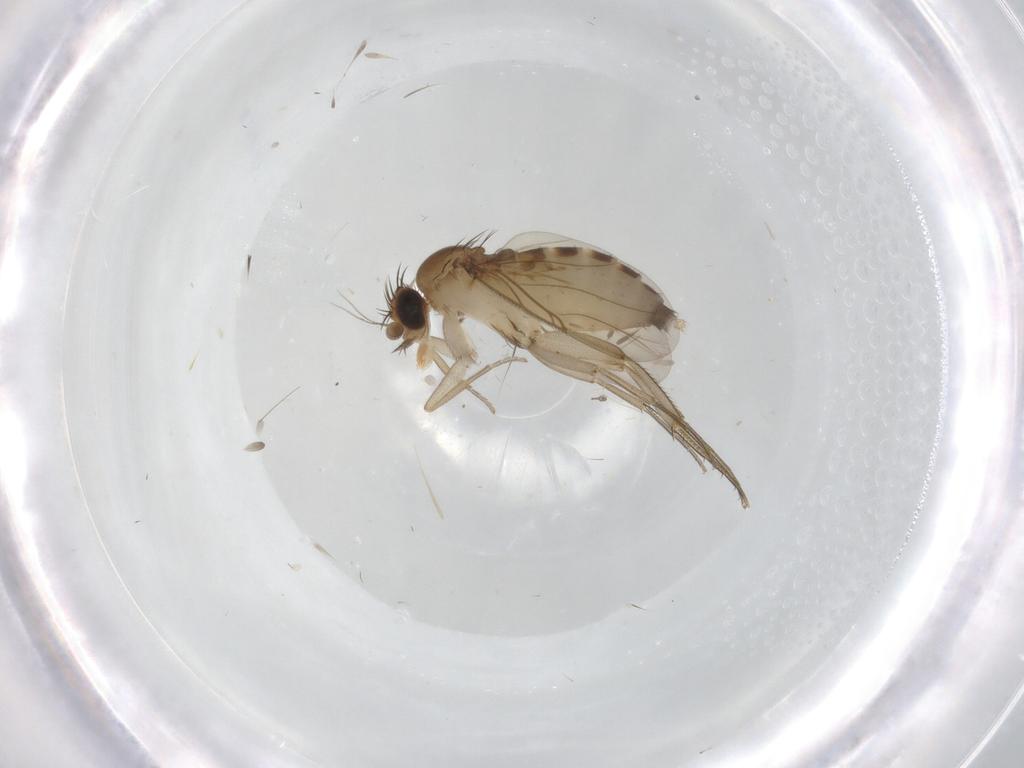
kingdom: Animalia
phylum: Arthropoda
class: Insecta
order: Diptera
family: Phoridae
